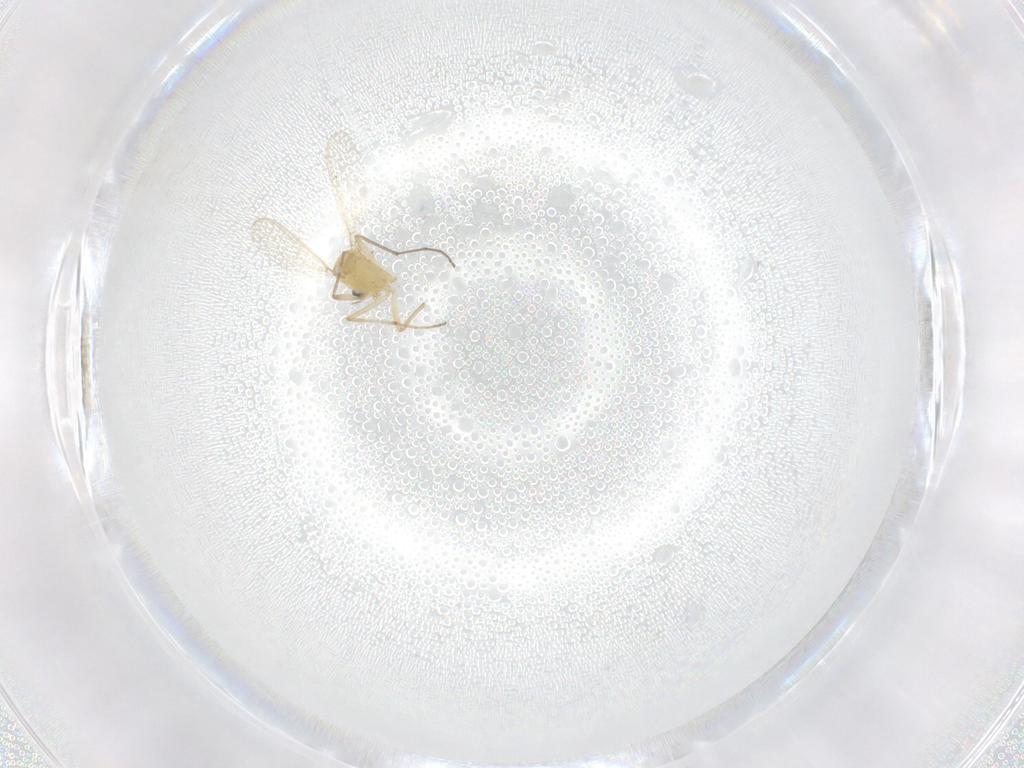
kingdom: Animalia
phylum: Arthropoda
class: Insecta
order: Diptera
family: Chironomidae
